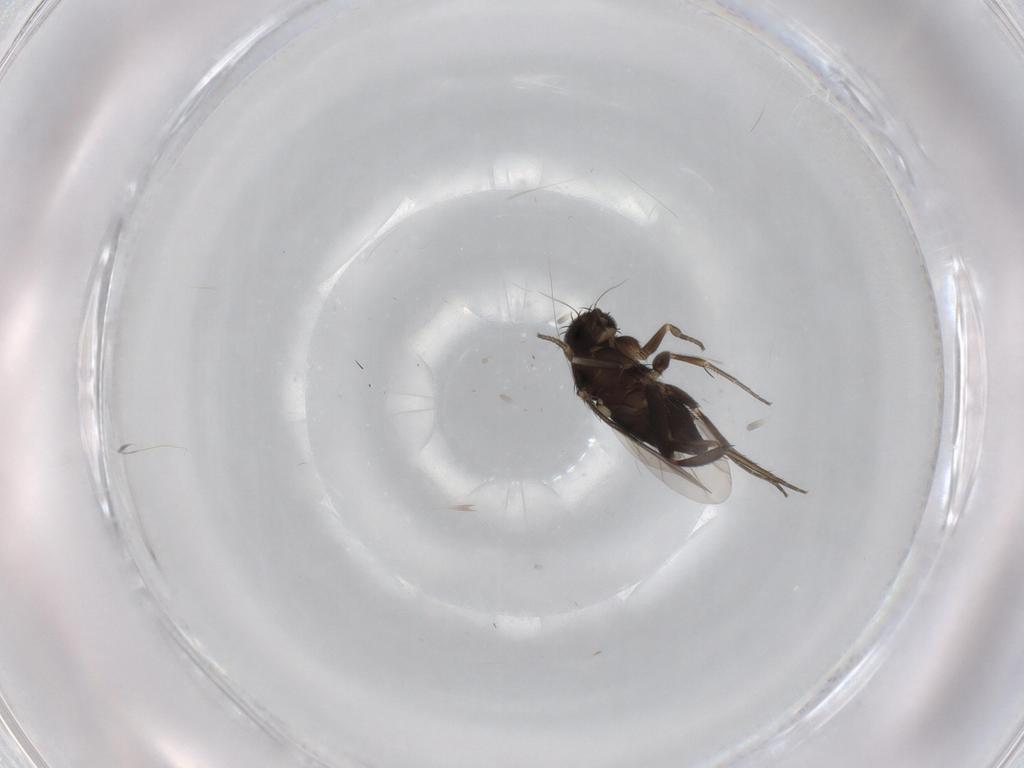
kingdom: Animalia
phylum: Arthropoda
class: Insecta
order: Diptera
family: Phoridae
